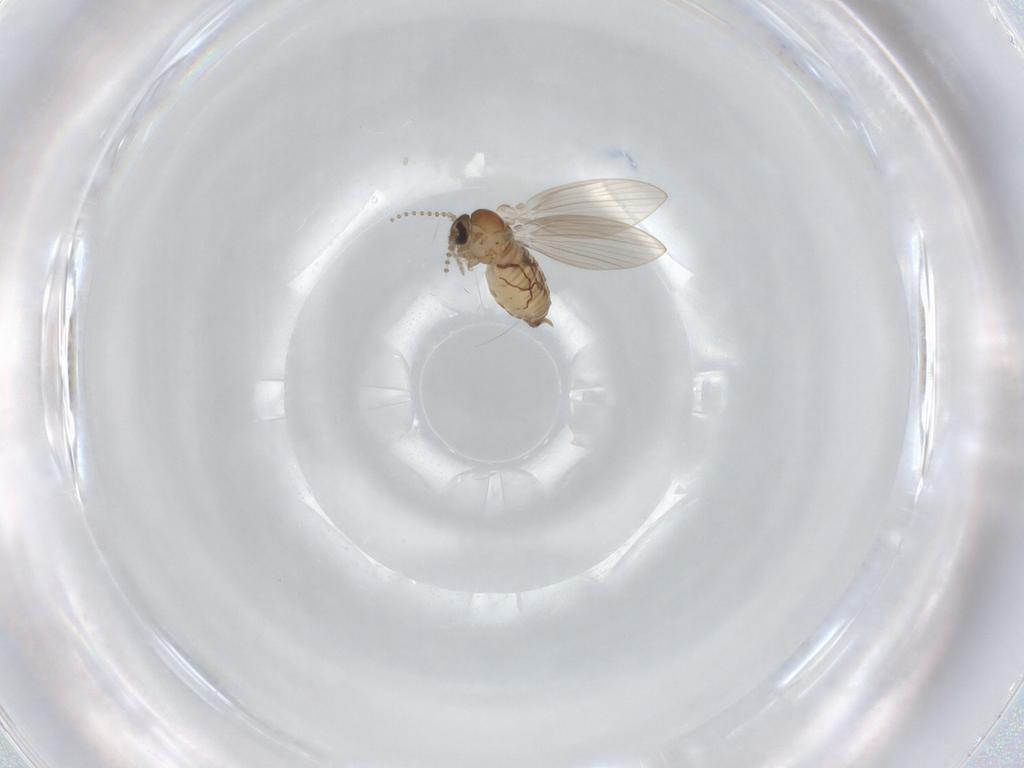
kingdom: Animalia
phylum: Arthropoda
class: Insecta
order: Diptera
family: Psychodidae
